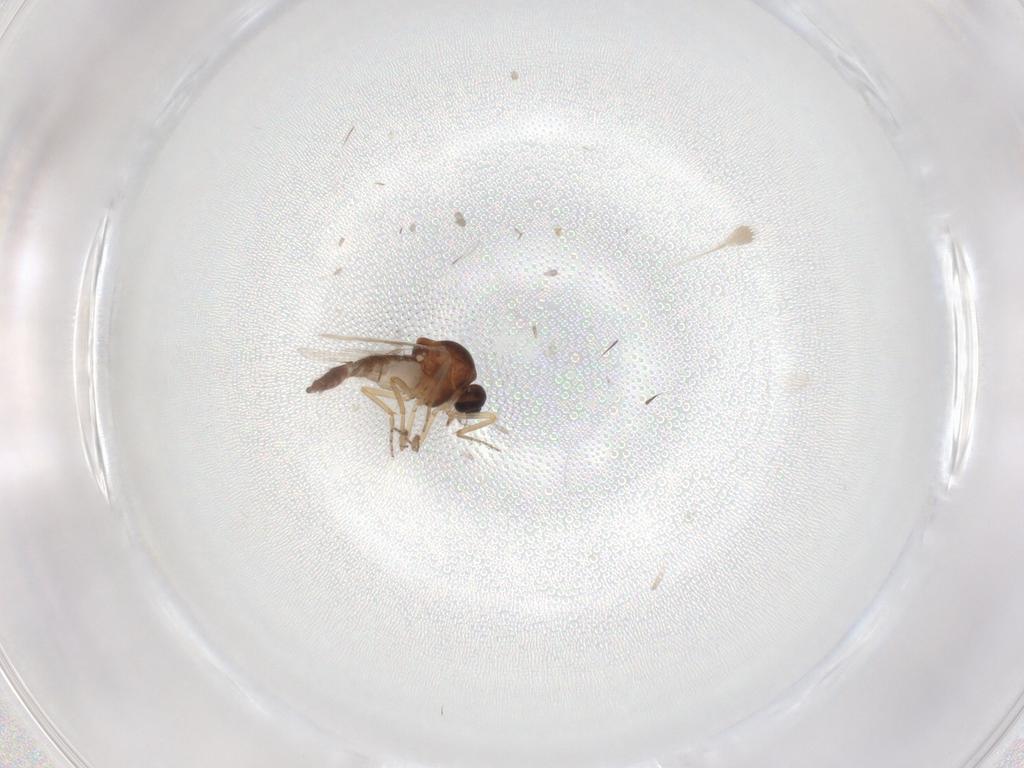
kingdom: Animalia
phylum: Arthropoda
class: Insecta
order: Diptera
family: Ceratopogonidae
